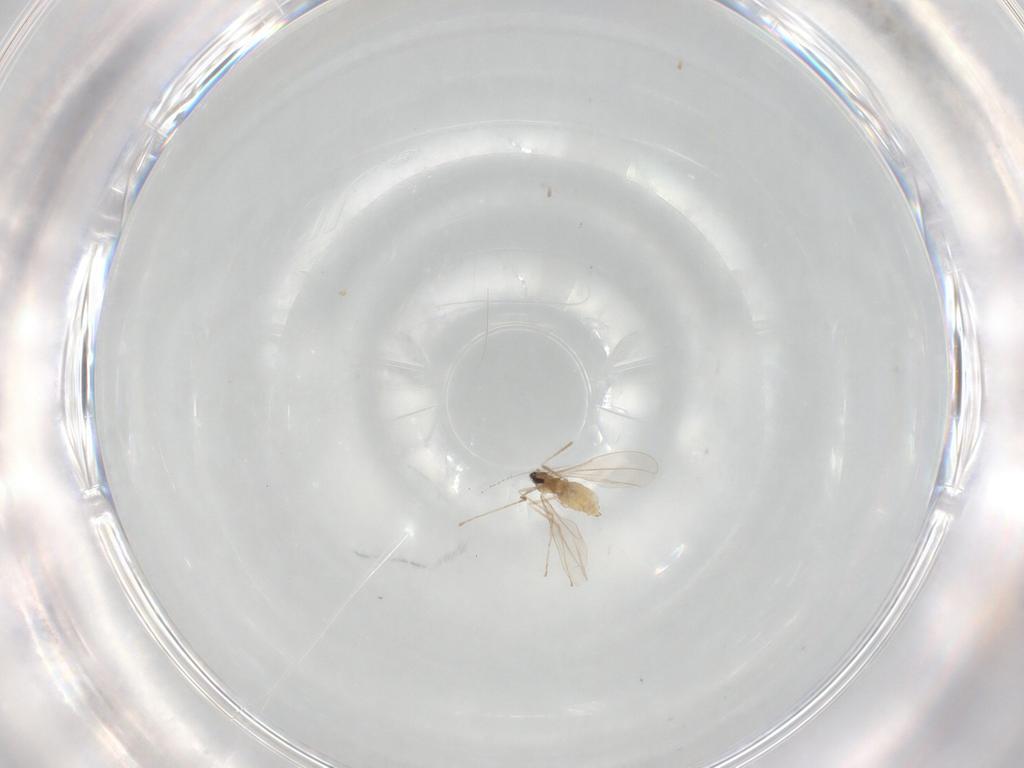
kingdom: Animalia
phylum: Arthropoda
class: Insecta
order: Diptera
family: Cecidomyiidae
